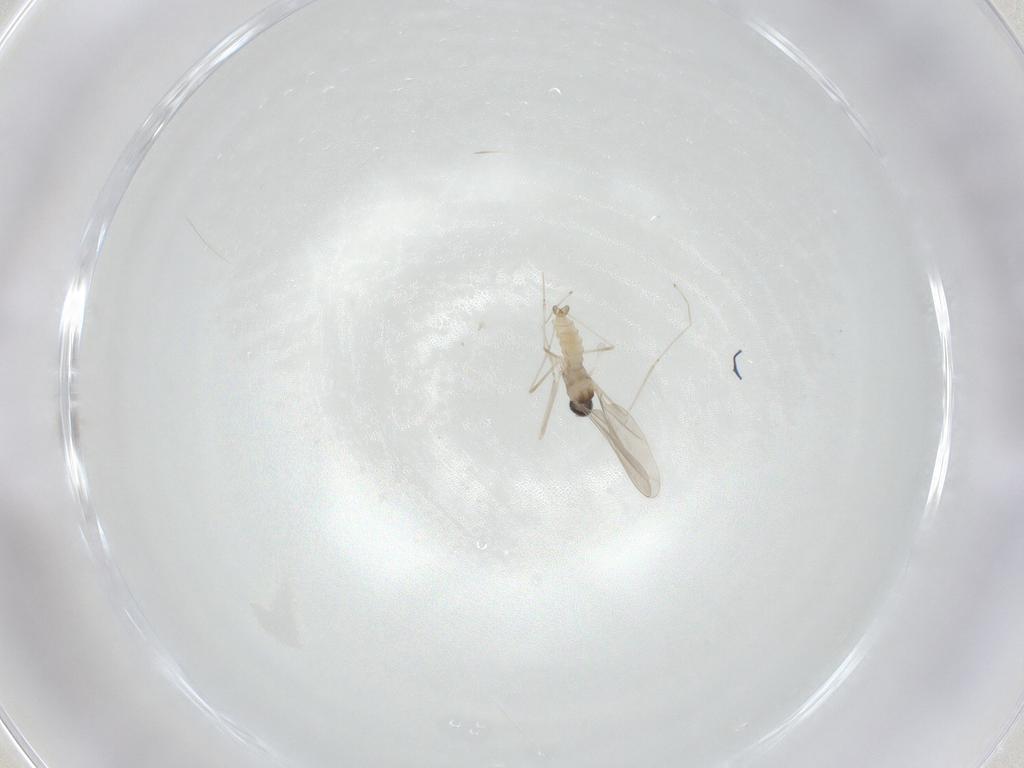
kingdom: Animalia
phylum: Arthropoda
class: Insecta
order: Diptera
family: Cecidomyiidae
